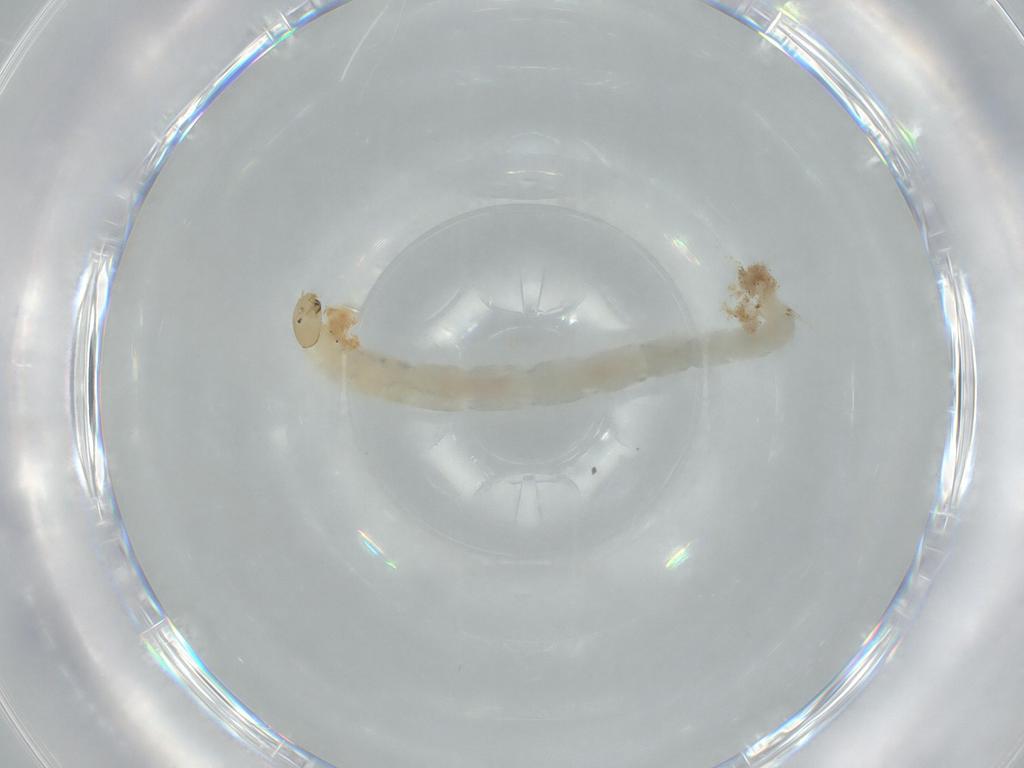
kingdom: Animalia
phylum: Arthropoda
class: Insecta
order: Diptera
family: Chironomidae
